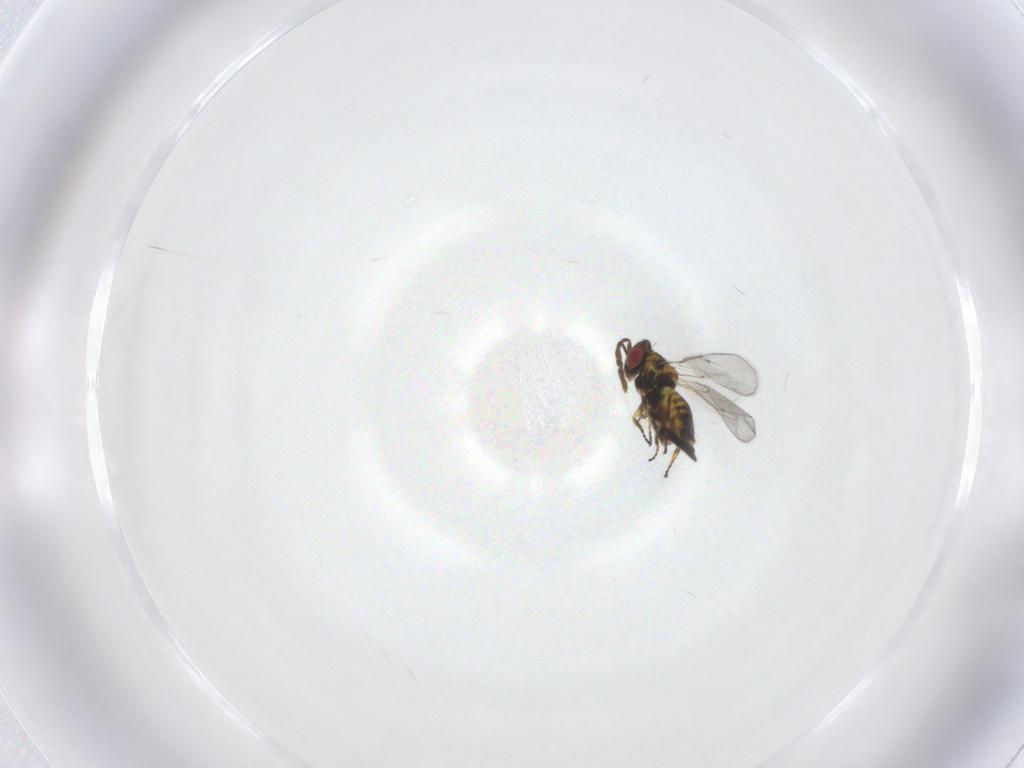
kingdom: Animalia
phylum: Arthropoda
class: Insecta
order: Hymenoptera
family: Eulophidae
